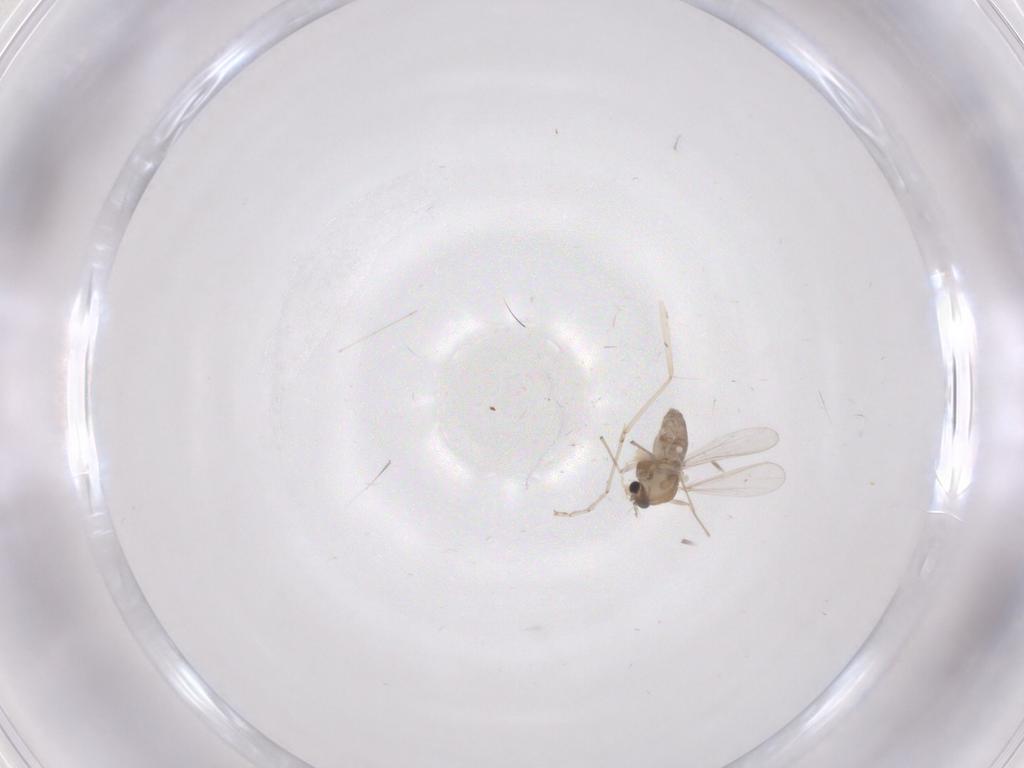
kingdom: Animalia
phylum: Arthropoda
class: Insecta
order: Diptera
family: Chironomidae
